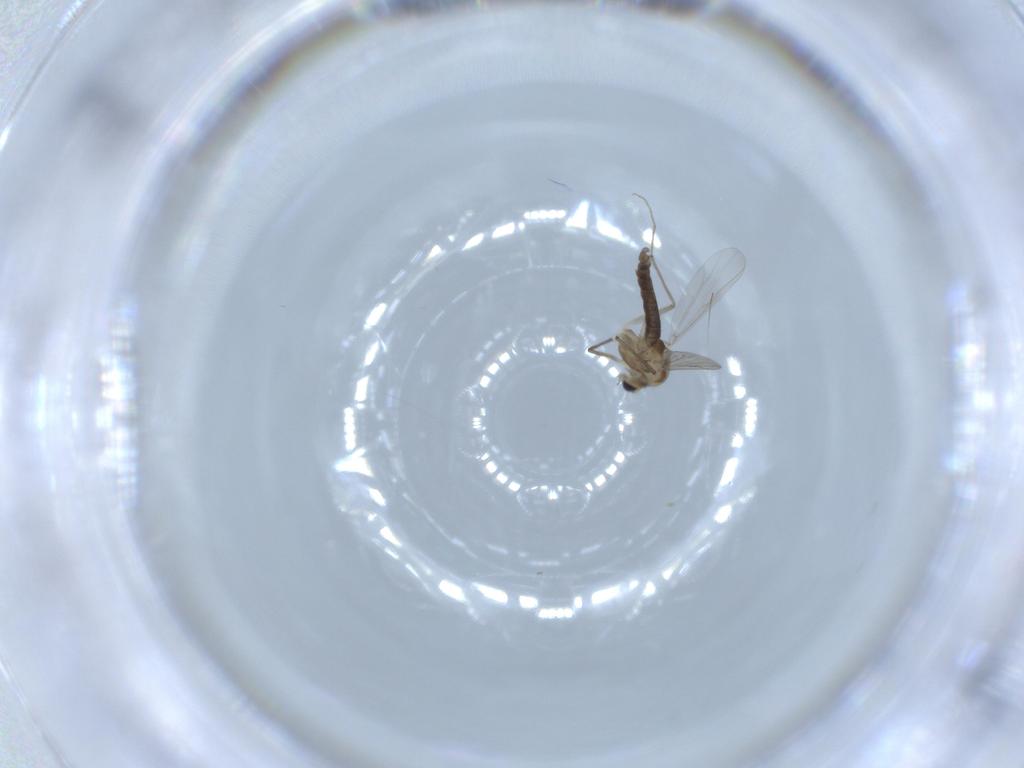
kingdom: Animalia
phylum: Arthropoda
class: Insecta
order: Diptera
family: Chironomidae
